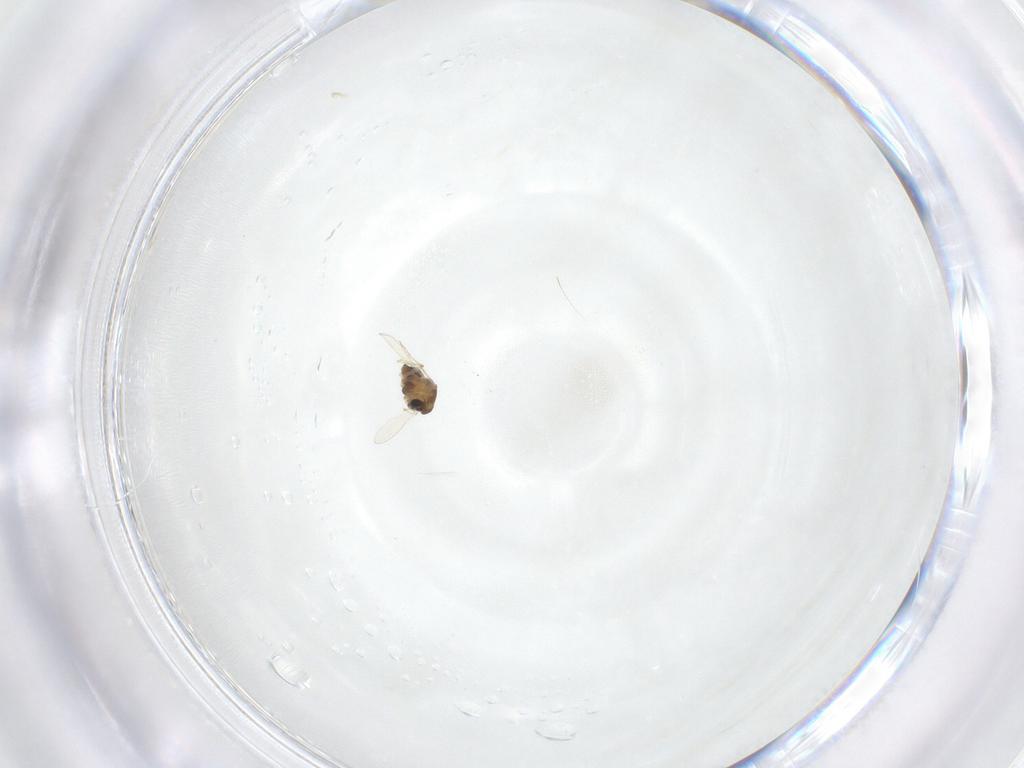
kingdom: Animalia
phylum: Arthropoda
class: Insecta
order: Diptera
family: Chironomidae
